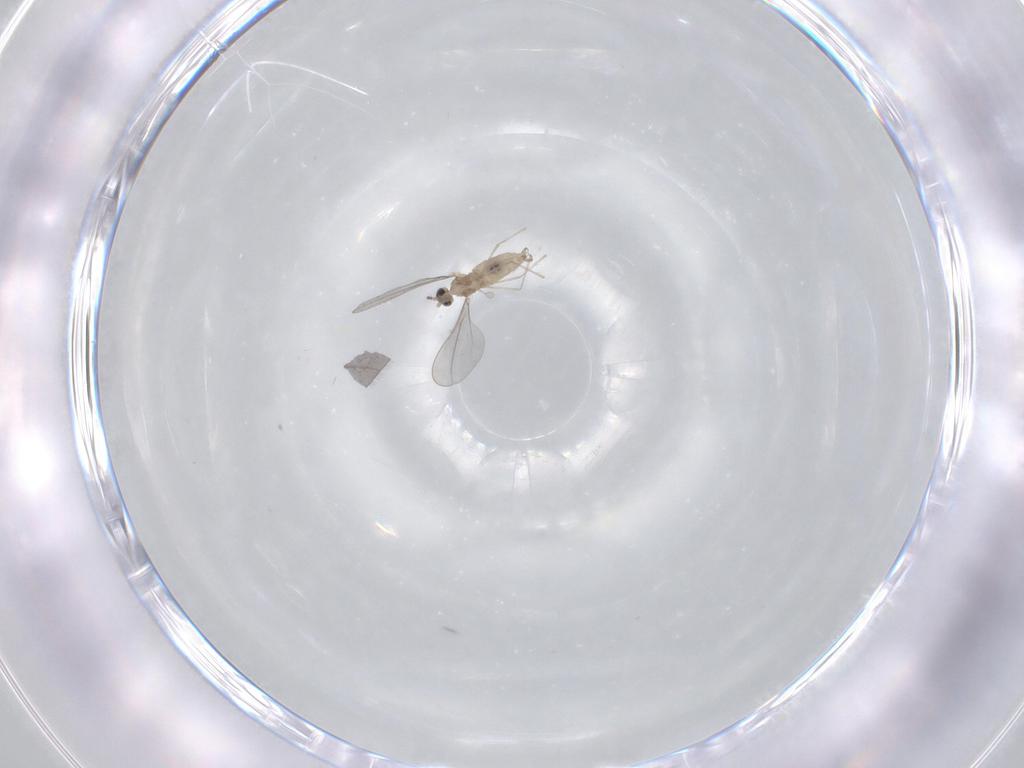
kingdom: Animalia
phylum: Arthropoda
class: Insecta
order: Diptera
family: Cecidomyiidae
